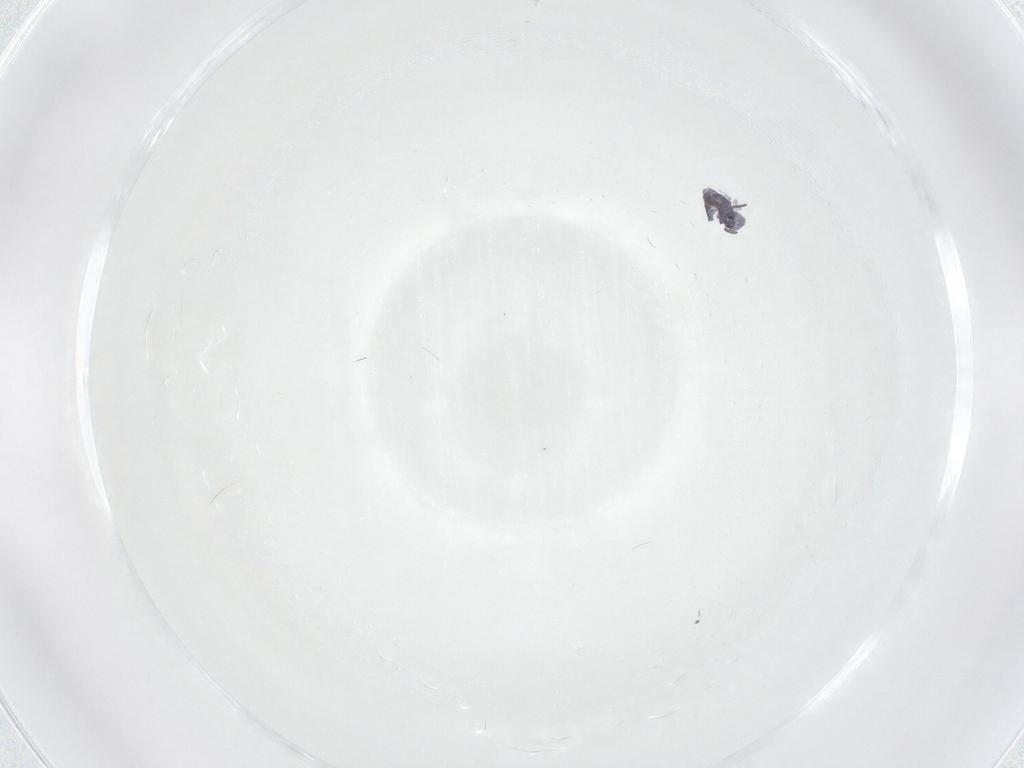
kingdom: Animalia
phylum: Arthropoda
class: Collembola
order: Symphypleona
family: Katiannidae
